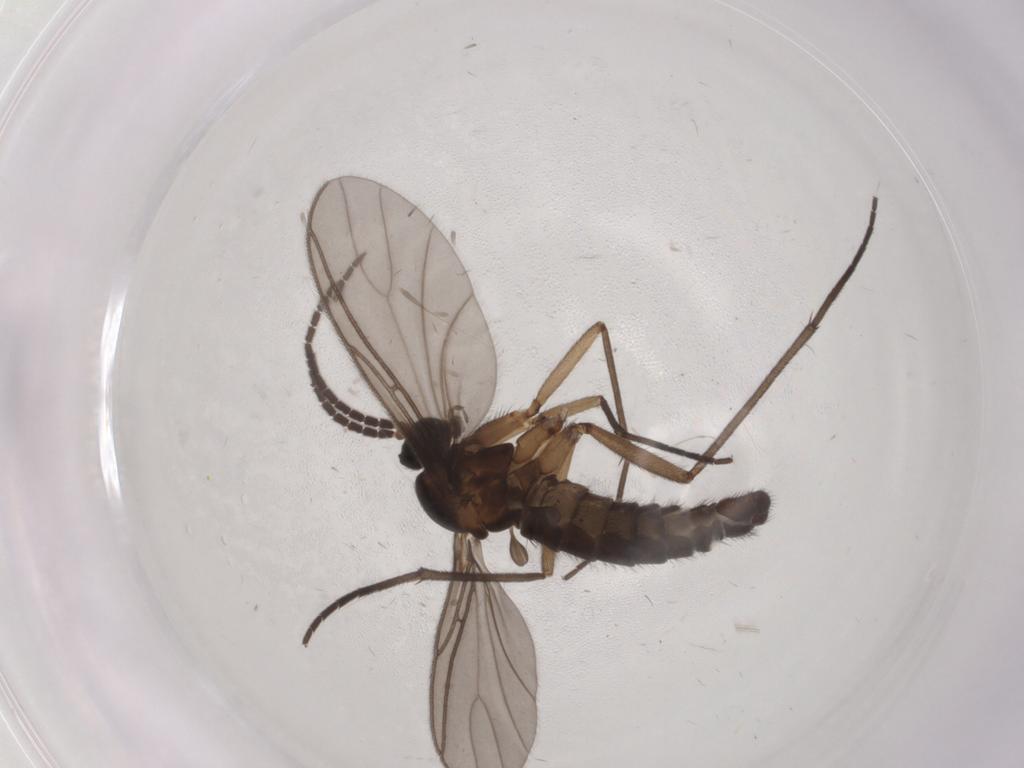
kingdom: Animalia
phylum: Arthropoda
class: Insecta
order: Diptera
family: Sciaridae
